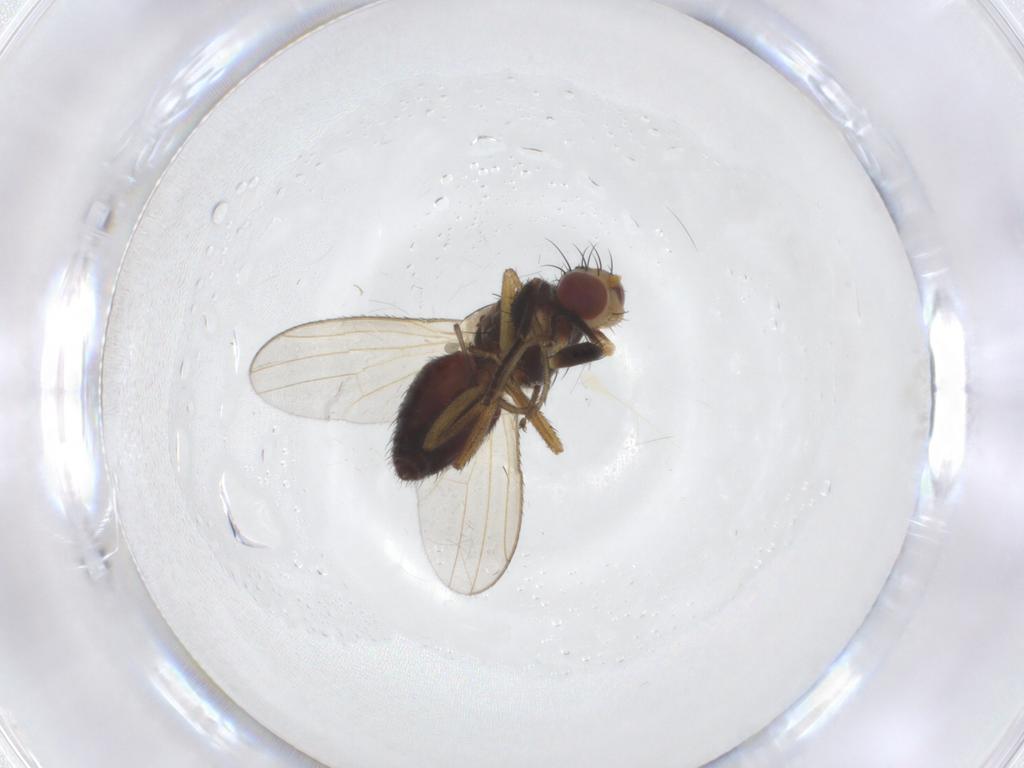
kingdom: Animalia
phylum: Arthropoda
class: Insecta
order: Diptera
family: Heleomyzidae
